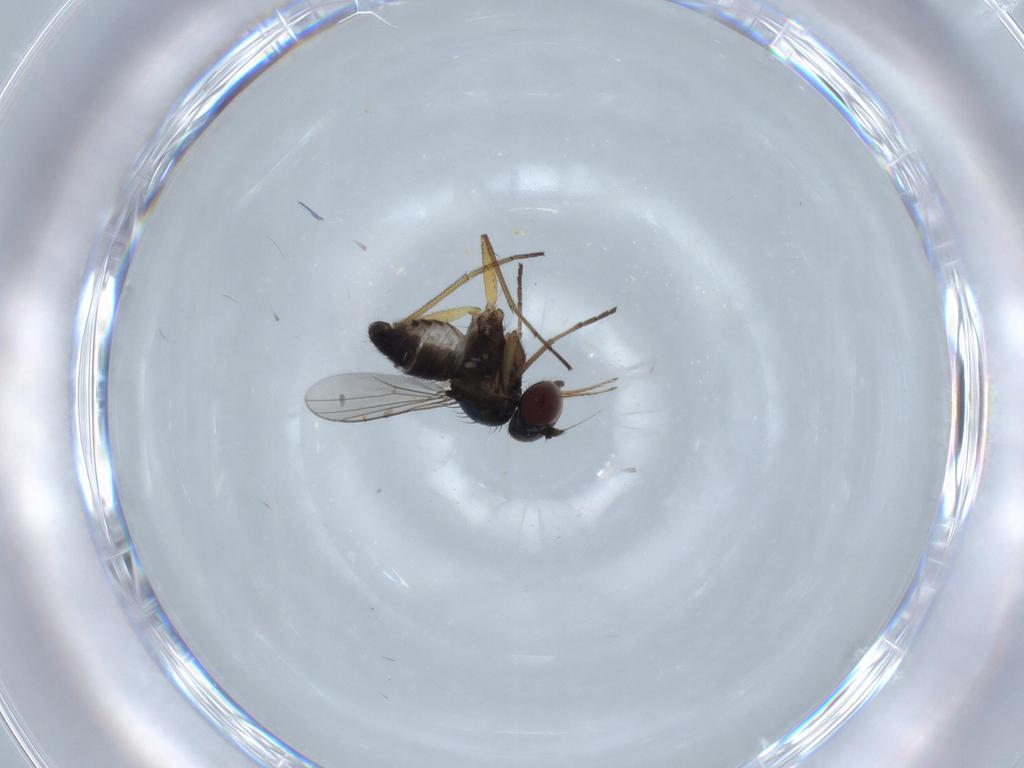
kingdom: Animalia
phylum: Arthropoda
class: Insecta
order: Diptera
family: Dolichopodidae
